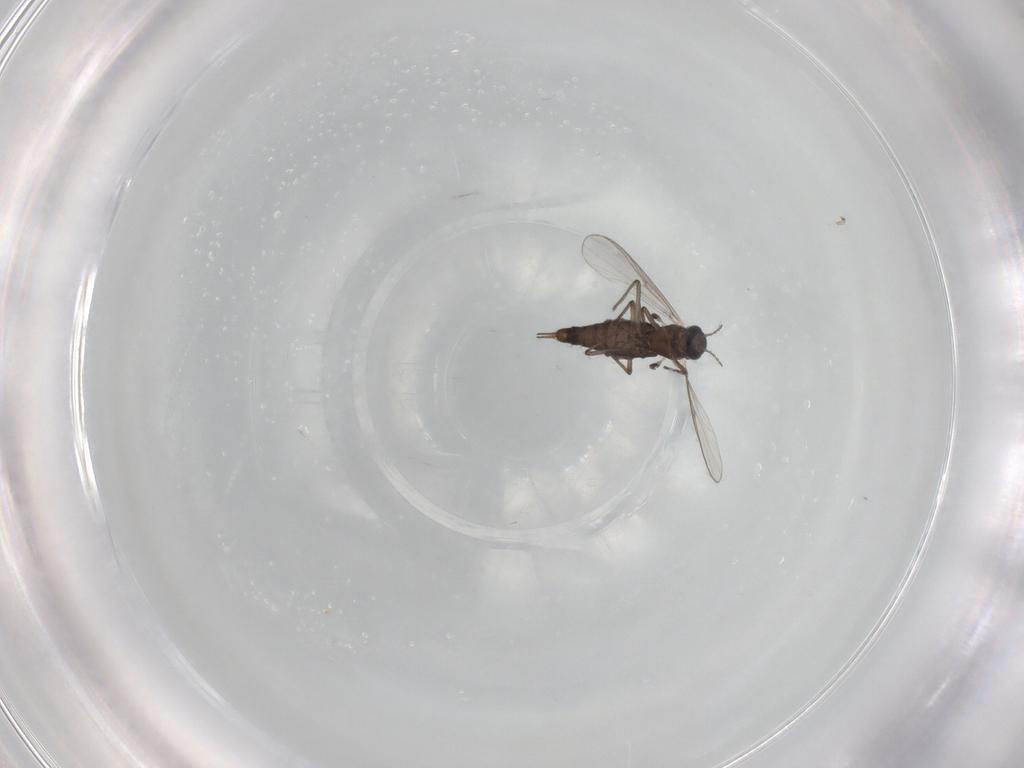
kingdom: Animalia
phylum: Arthropoda
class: Insecta
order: Diptera
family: Chironomidae
